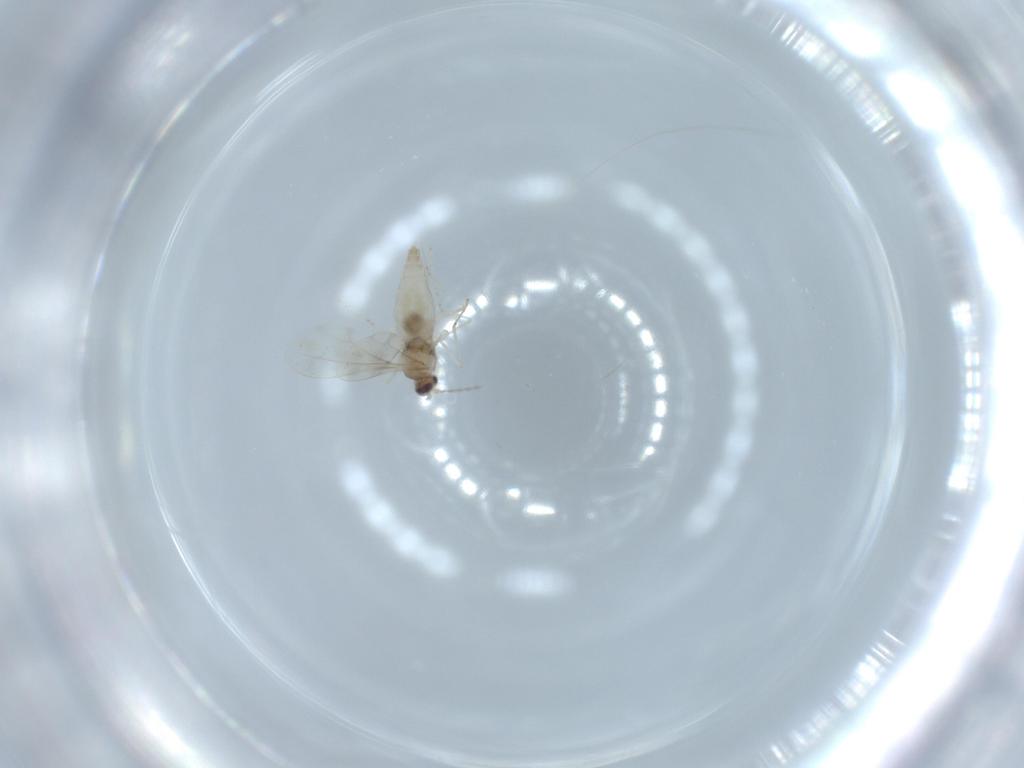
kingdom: Animalia
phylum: Arthropoda
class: Insecta
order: Diptera
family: Cecidomyiidae
